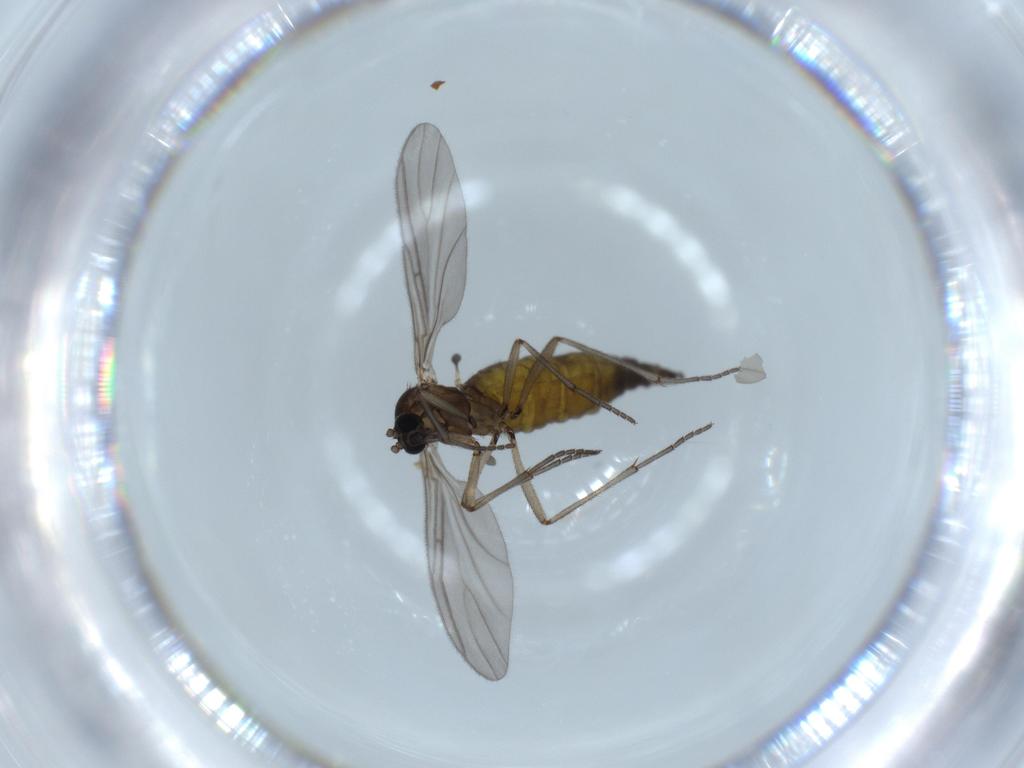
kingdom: Animalia
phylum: Arthropoda
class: Insecta
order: Diptera
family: Sciaridae
